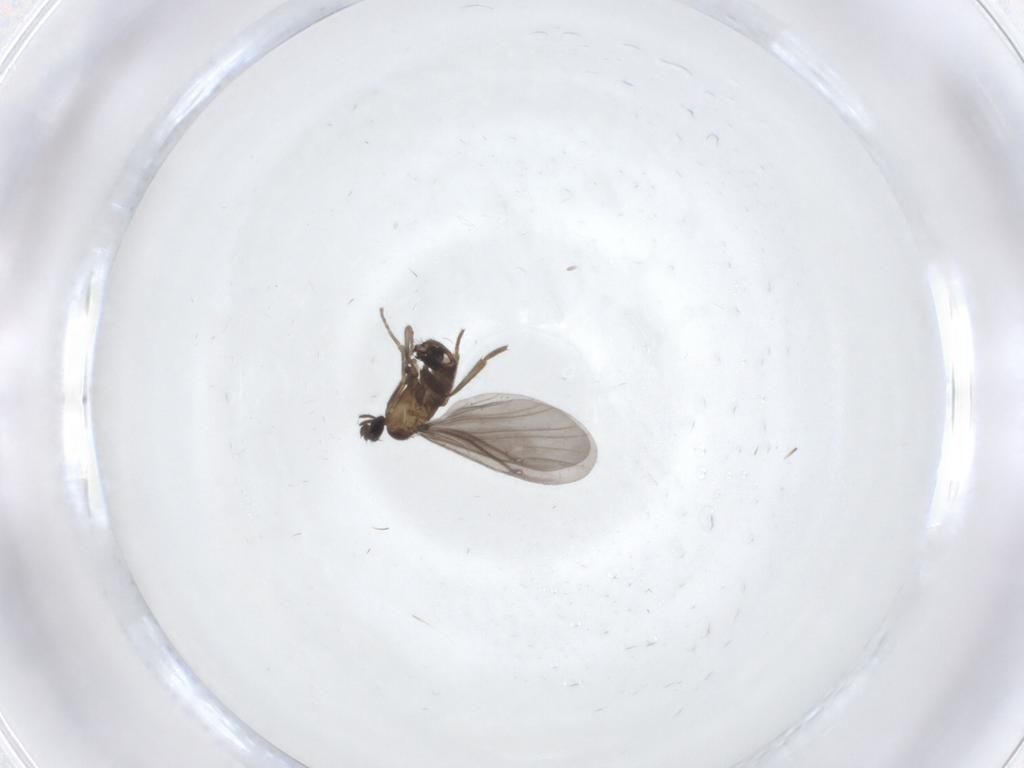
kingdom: Animalia
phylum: Arthropoda
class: Insecta
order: Diptera
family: Phoridae
